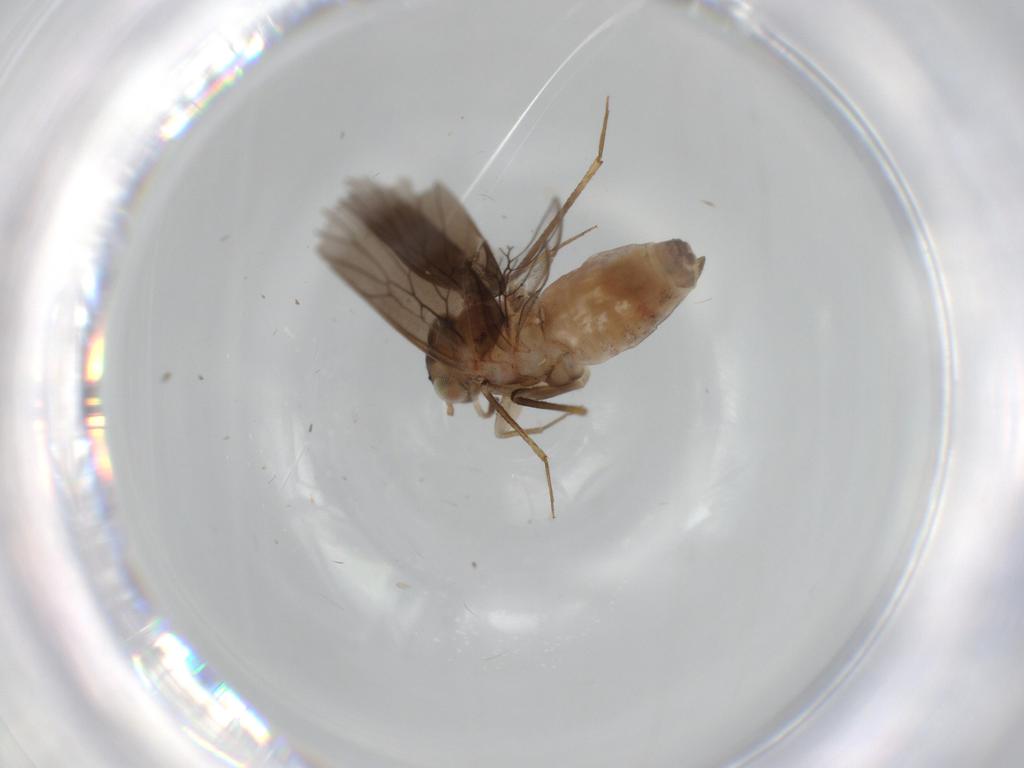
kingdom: Animalia
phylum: Arthropoda
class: Insecta
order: Psocodea
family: Lepidopsocidae
